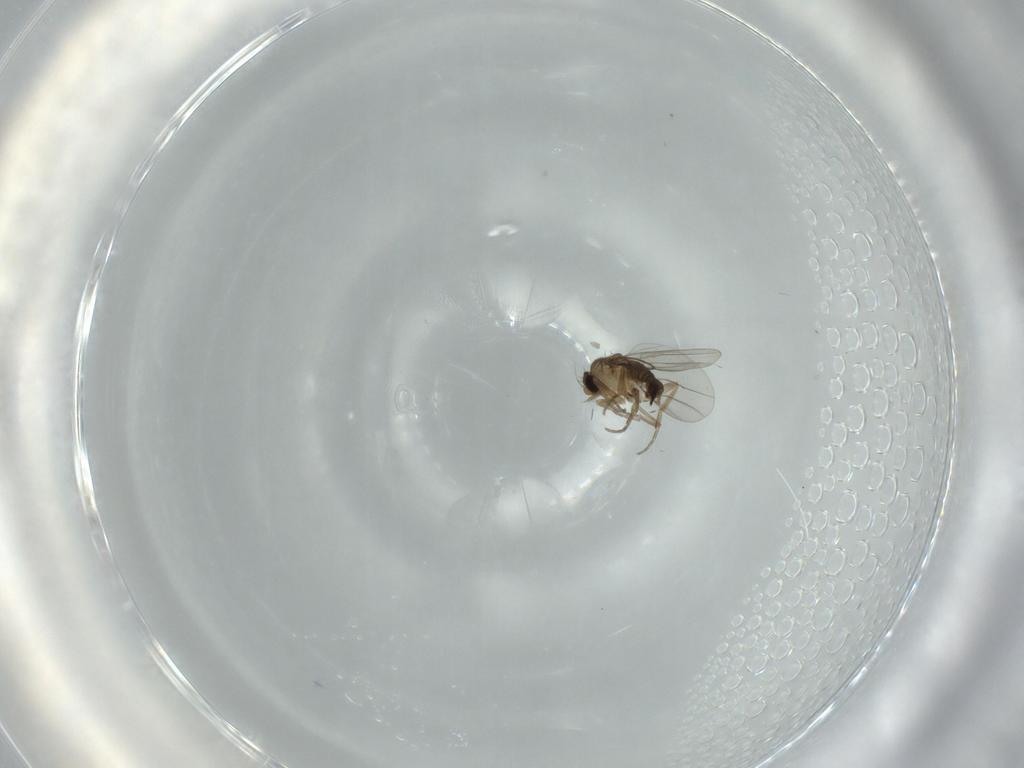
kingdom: Animalia
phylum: Arthropoda
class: Insecta
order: Diptera
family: Phoridae
